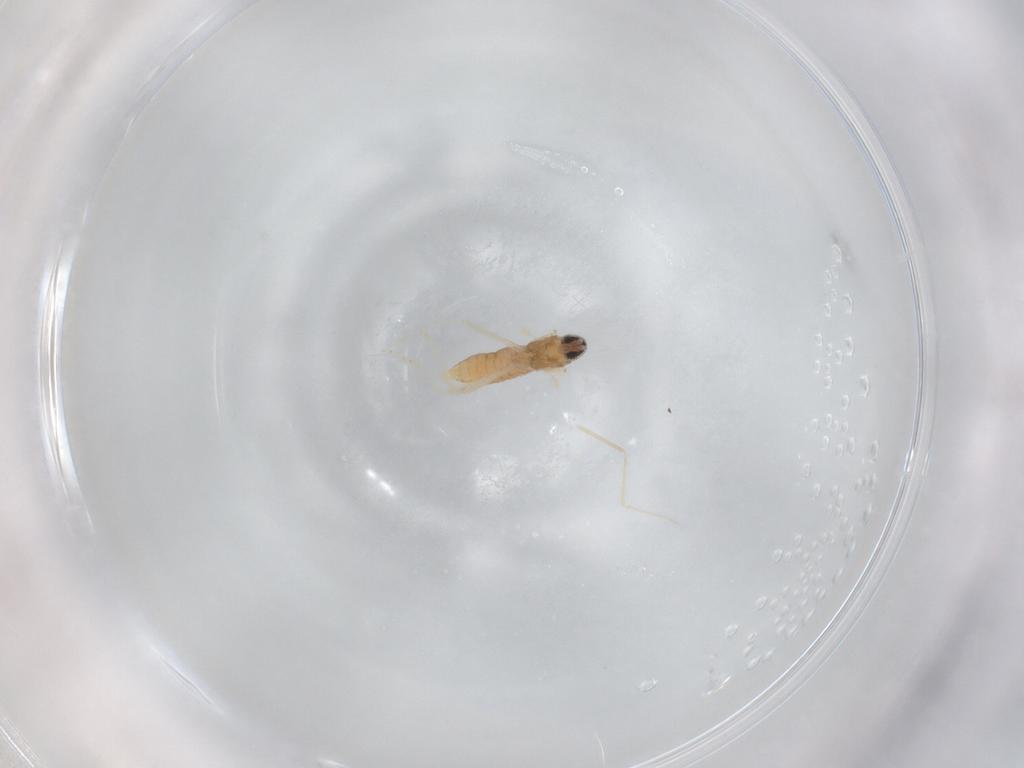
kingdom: Animalia
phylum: Arthropoda
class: Insecta
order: Diptera
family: Cecidomyiidae
